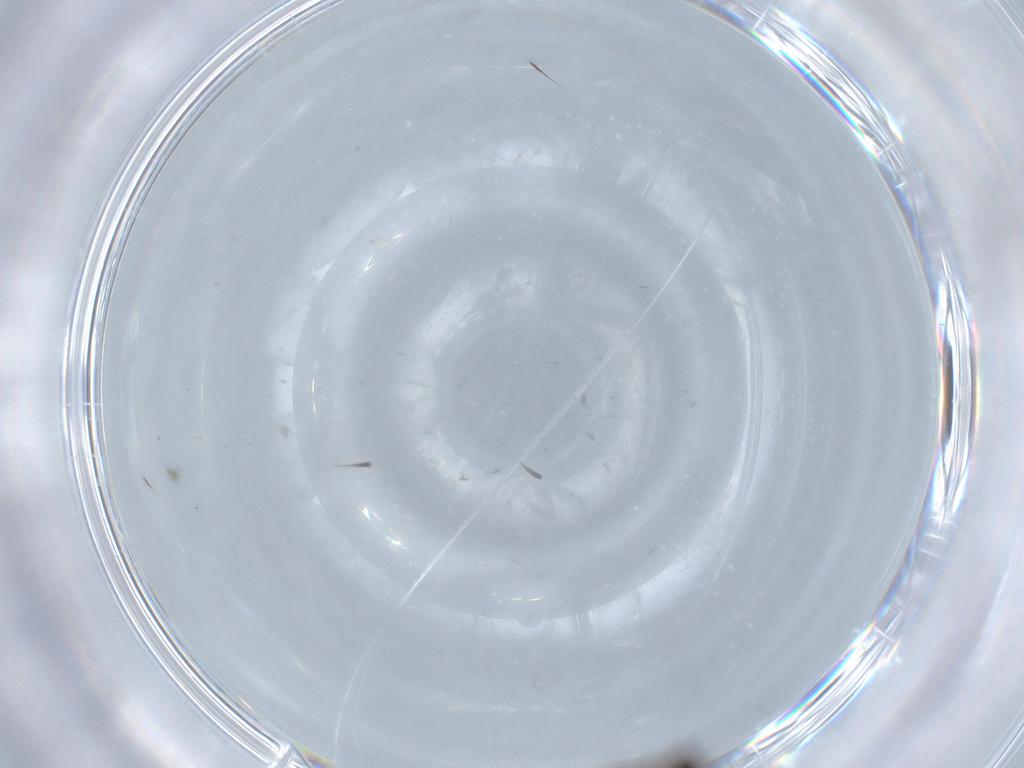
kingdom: Animalia
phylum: Arthropoda
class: Insecta
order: Diptera
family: Chironomidae
